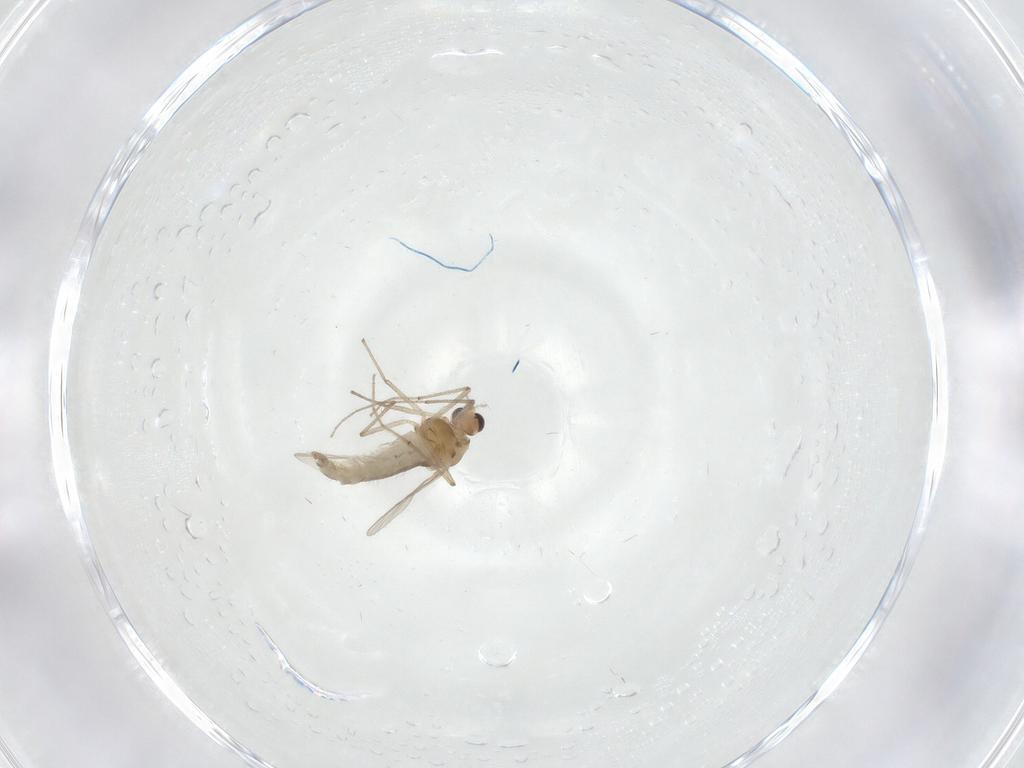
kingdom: Animalia
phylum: Arthropoda
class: Insecta
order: Diptera
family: Chironomidae
